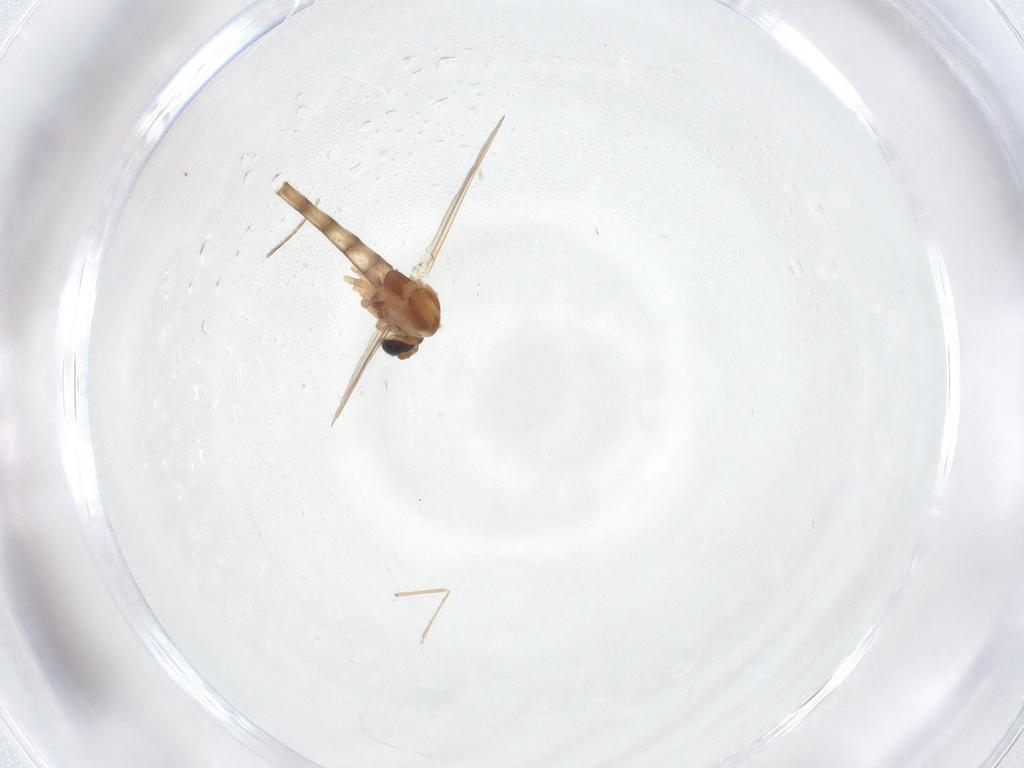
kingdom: Animalia
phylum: Arthropoda
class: Insecta
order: Diptera
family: Chironomidae
